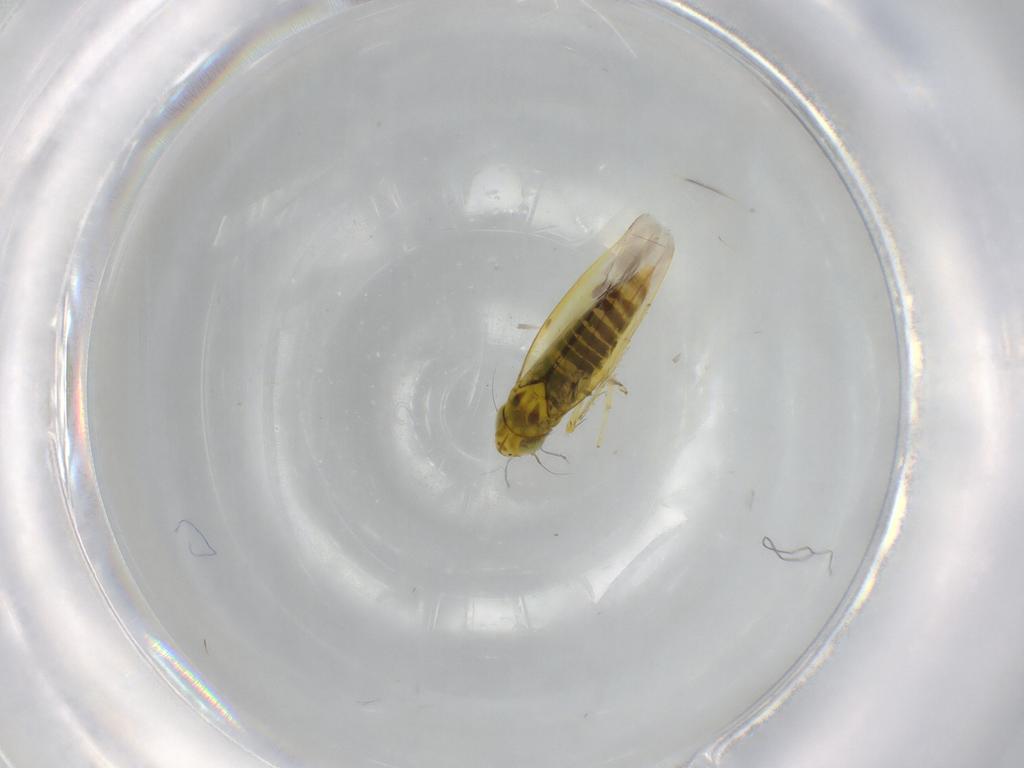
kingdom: Animalia
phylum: Arthropoda
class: Insecta
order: Hemiptera
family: Cicadellidae
